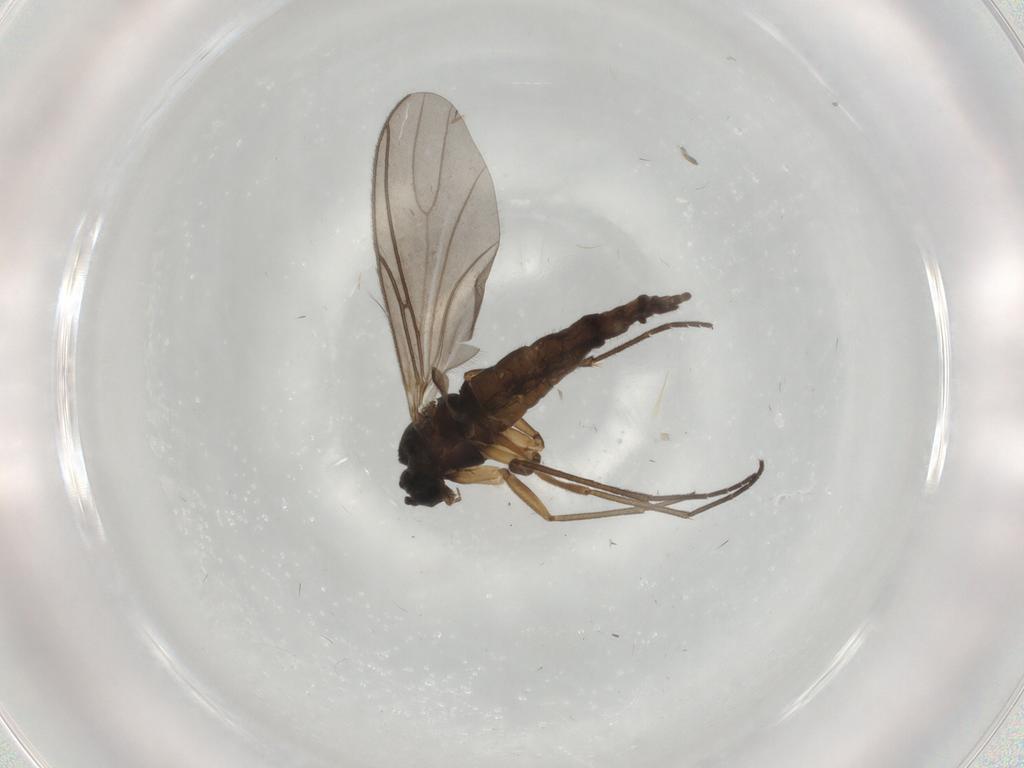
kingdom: Animalia
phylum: Arthropoda
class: Insecta
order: Diptera
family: Sciaridae
